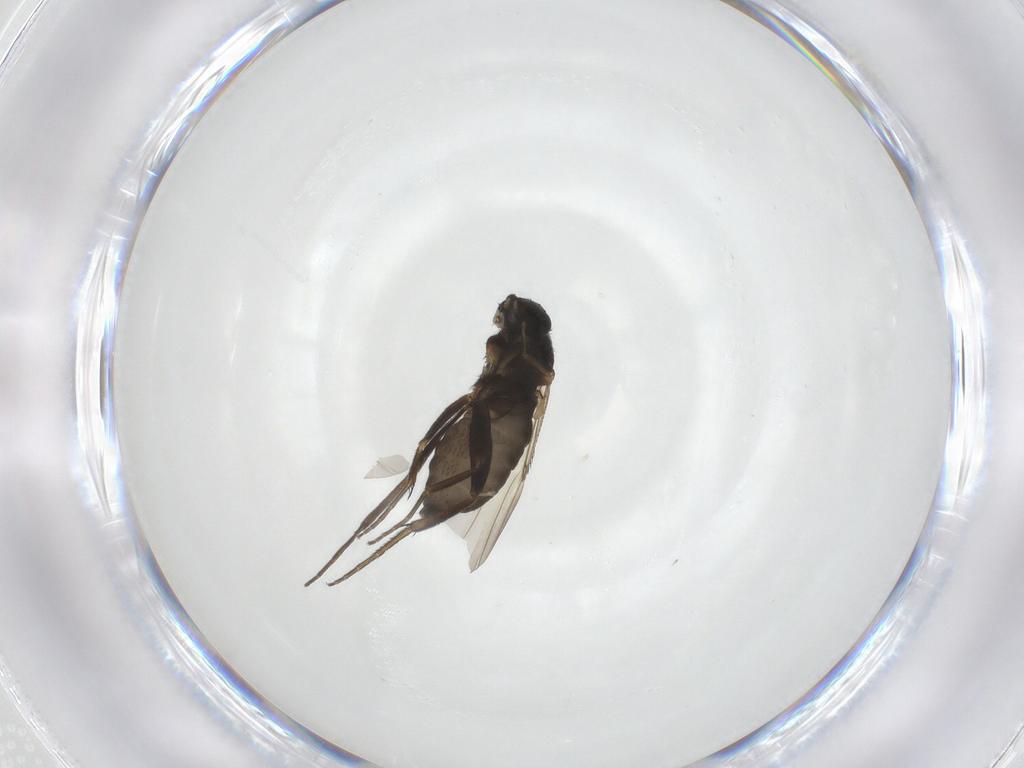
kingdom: Animalia
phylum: Arthropoda
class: Insecta
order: Diptera
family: Phoridae
